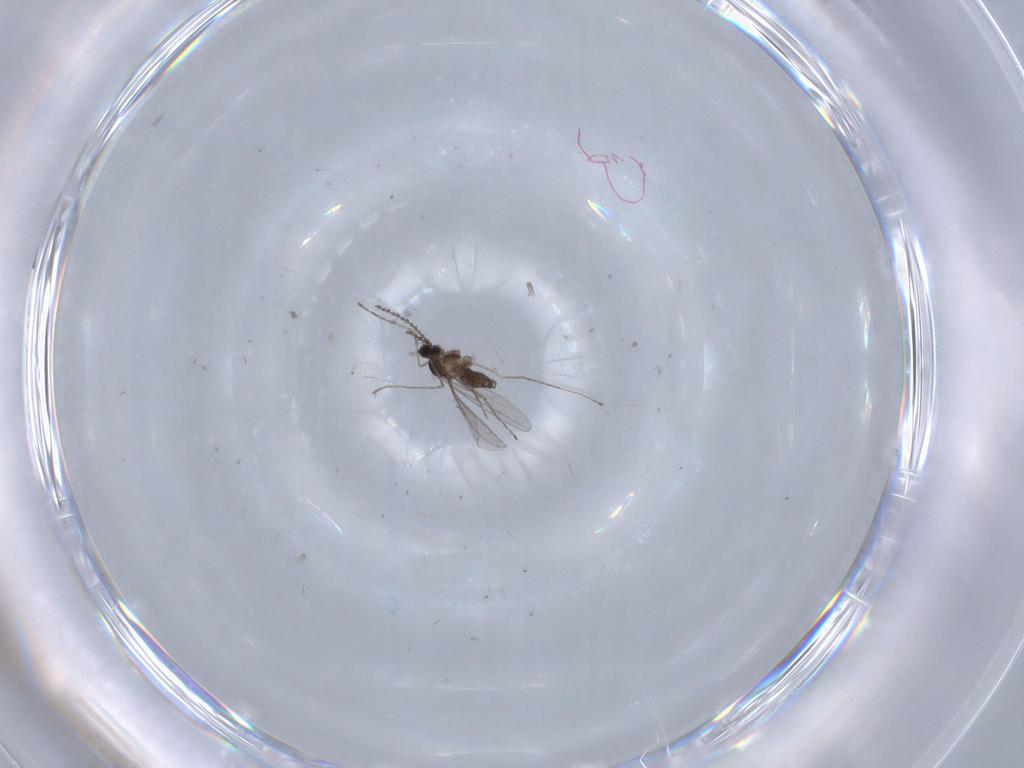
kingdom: Animalia
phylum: Arthropoda
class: Insecta
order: Diptera
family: Cecidomyiidae
